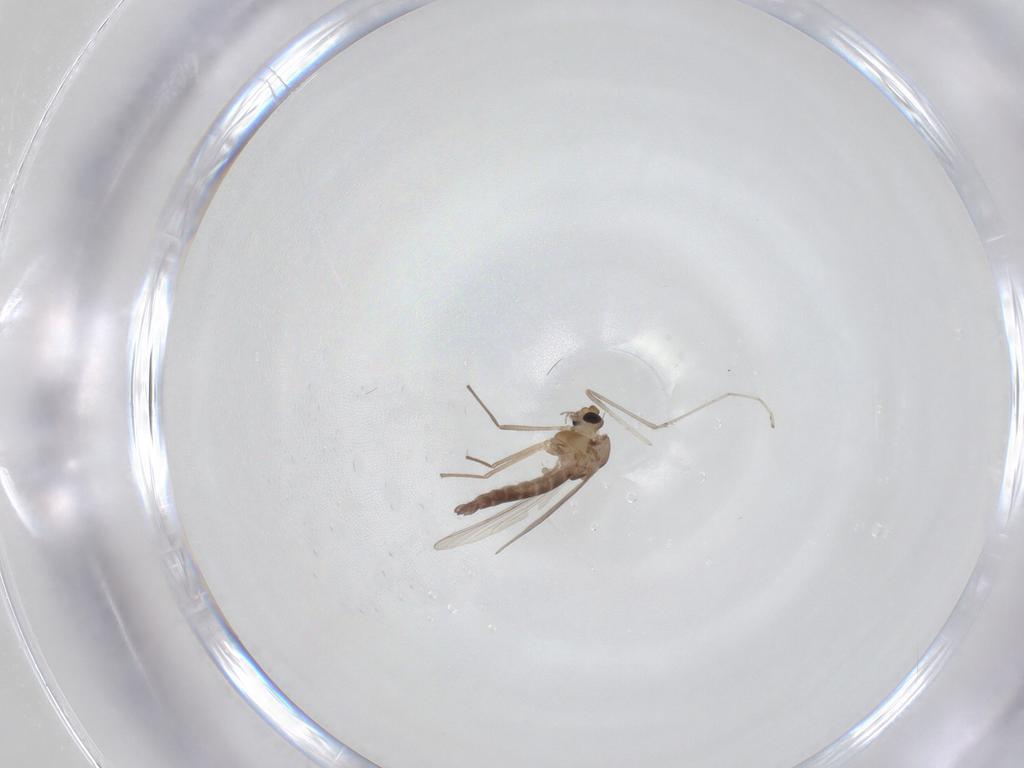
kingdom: Animalia
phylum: Arthropoda
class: Insecta
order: Diptera
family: Chironomidae
